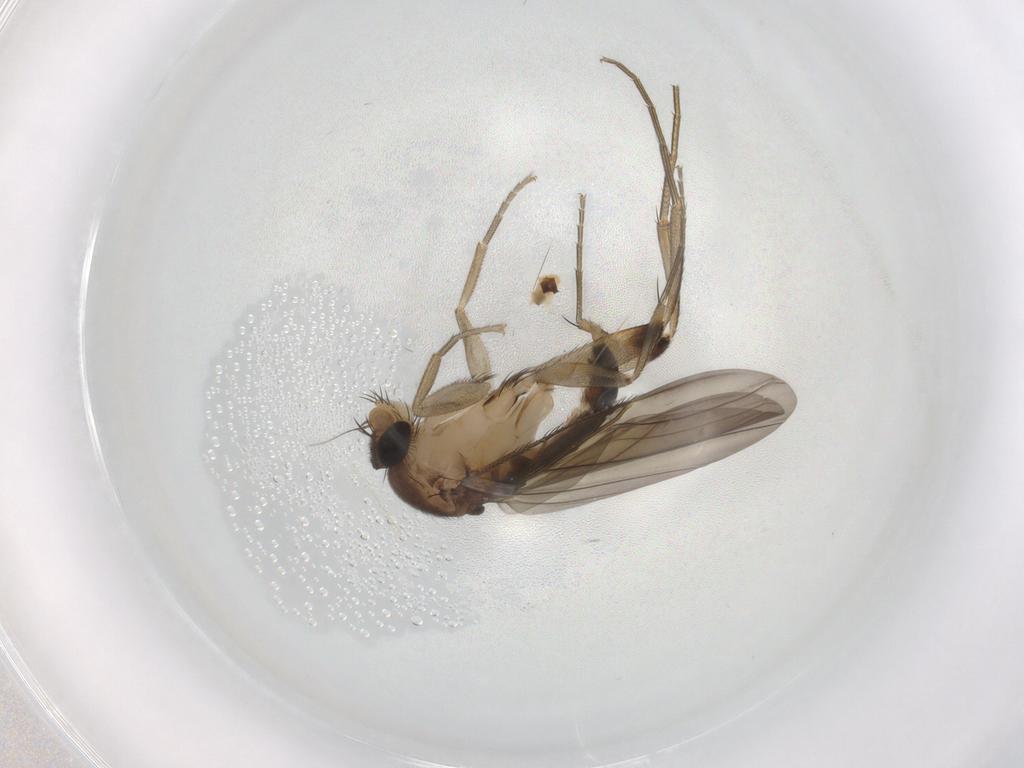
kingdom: Animalia
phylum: Arthropoda
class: Insecta
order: Diptera
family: Phoridae
